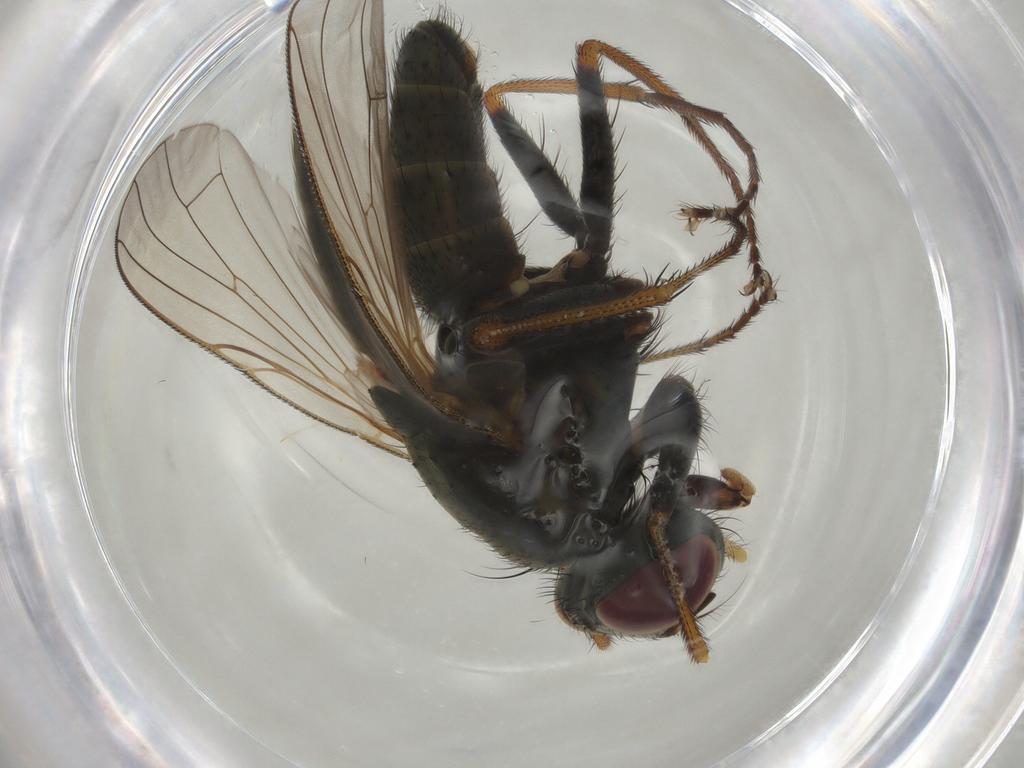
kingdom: Animalia
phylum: Arthropoda
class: Insecta
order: Diptera
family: Muscidae
